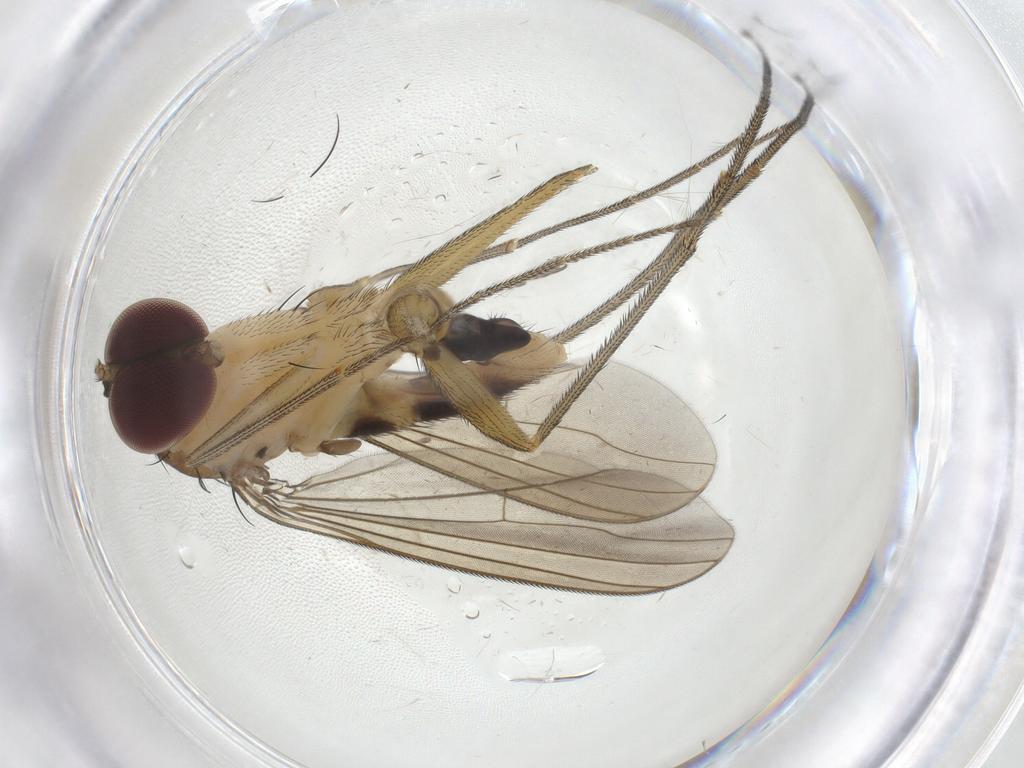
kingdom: Animalia
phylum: Arthropoda
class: Insecta
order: Diptera
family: Dolichopodidae
